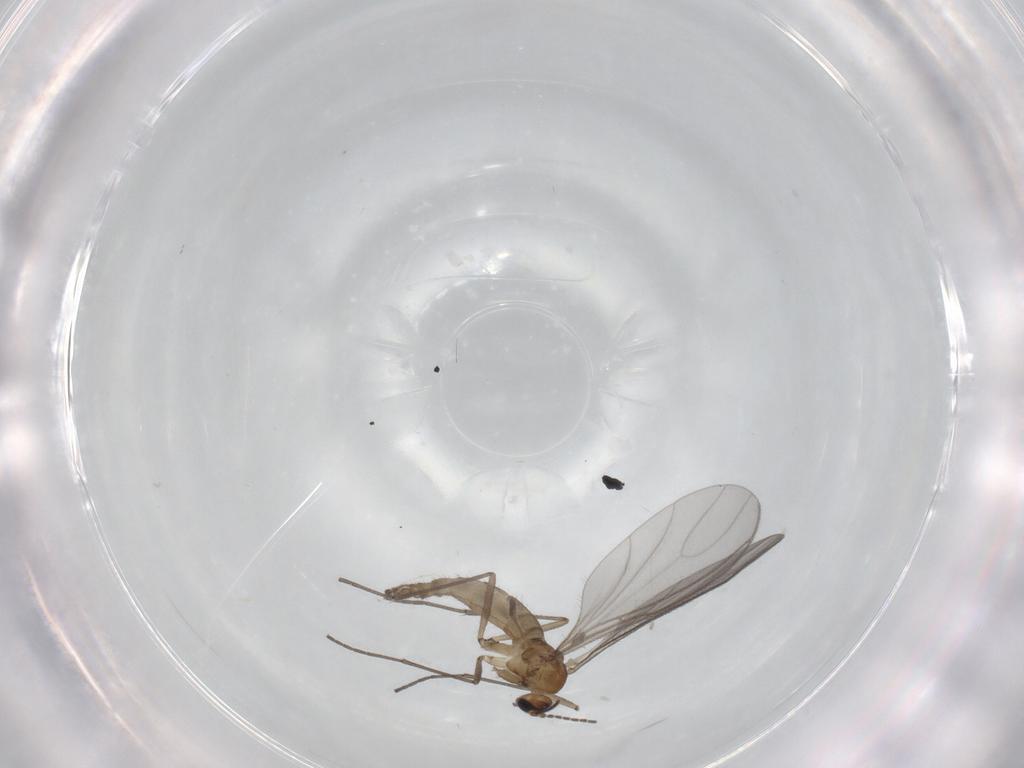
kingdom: Animalia
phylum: Arthropoda
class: Insecta
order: Diptera
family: Sciaridae
